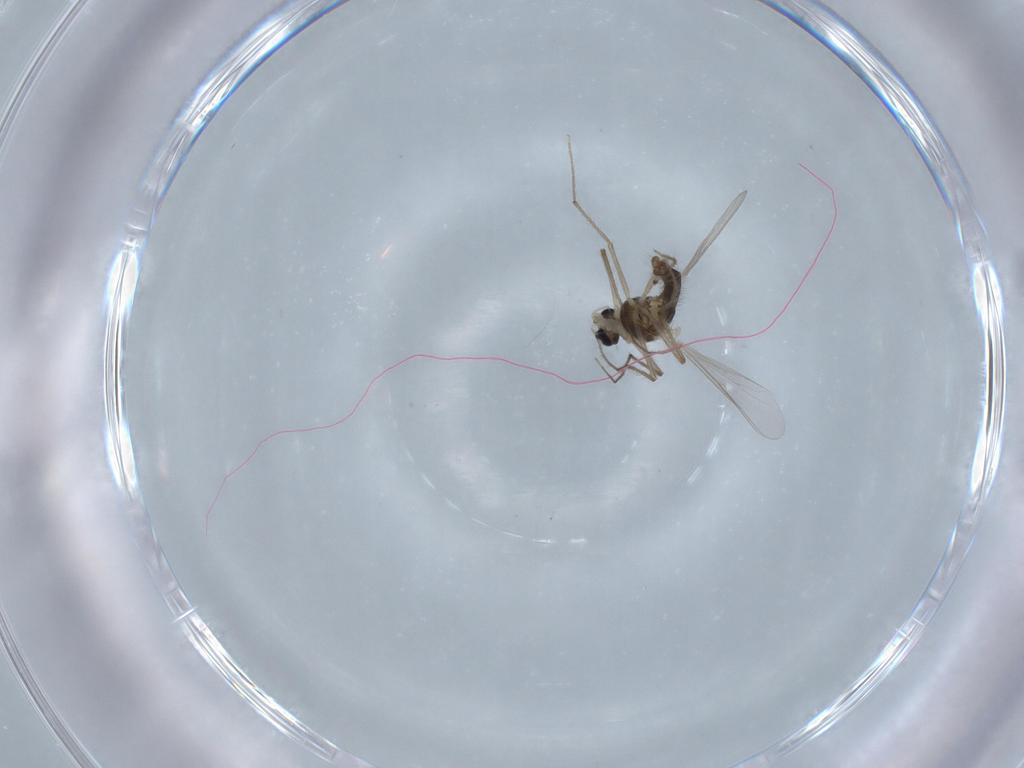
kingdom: Animalia
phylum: Arthropoda
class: Insecta
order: Diptera
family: Chironomidae
